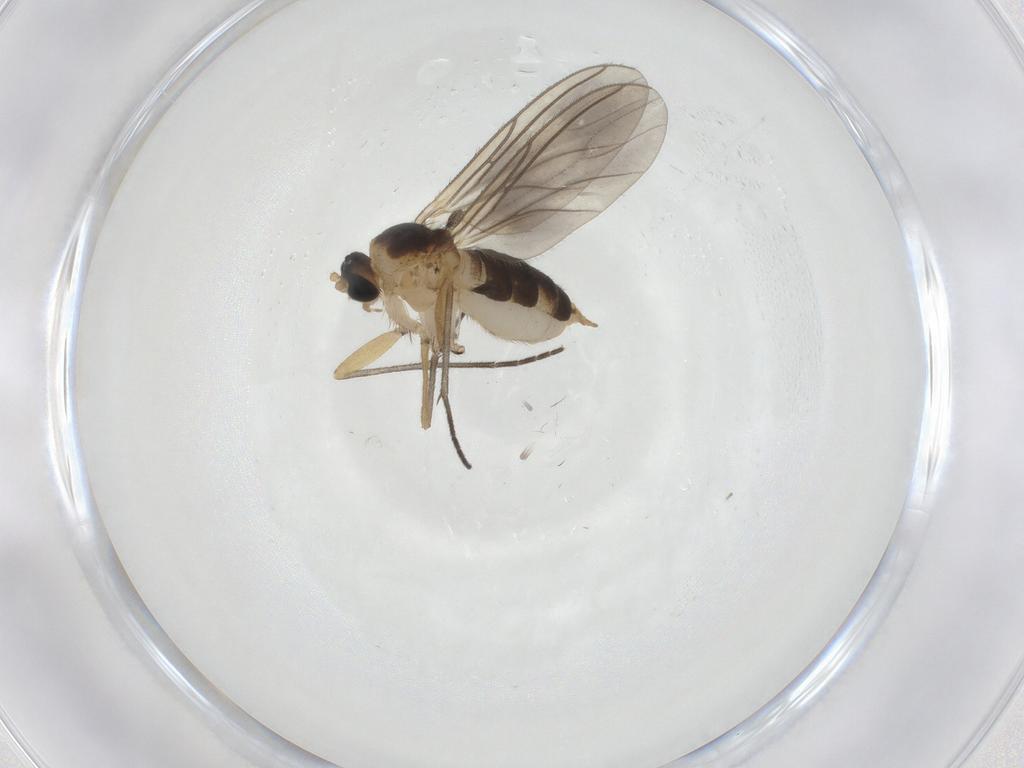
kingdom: Animalia
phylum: Arthropoda
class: Insecta
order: Diptera
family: Sciaridae
